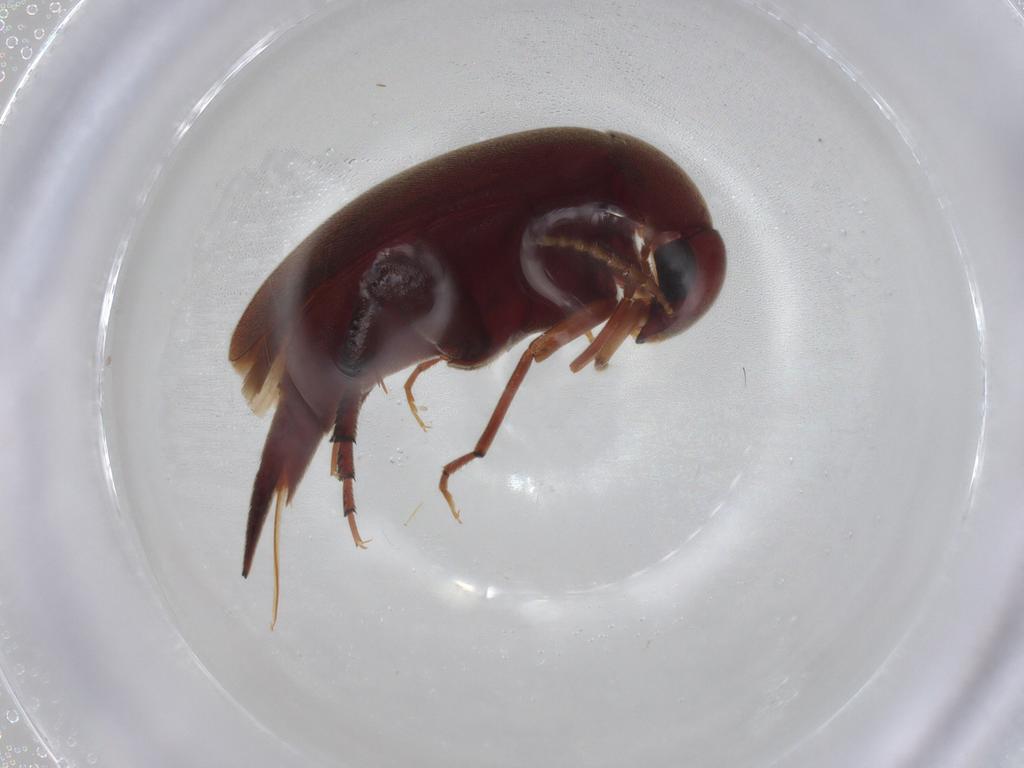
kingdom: Animalia
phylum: Arthropoda
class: Insecta
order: Coleoptera
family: Mordellidae
